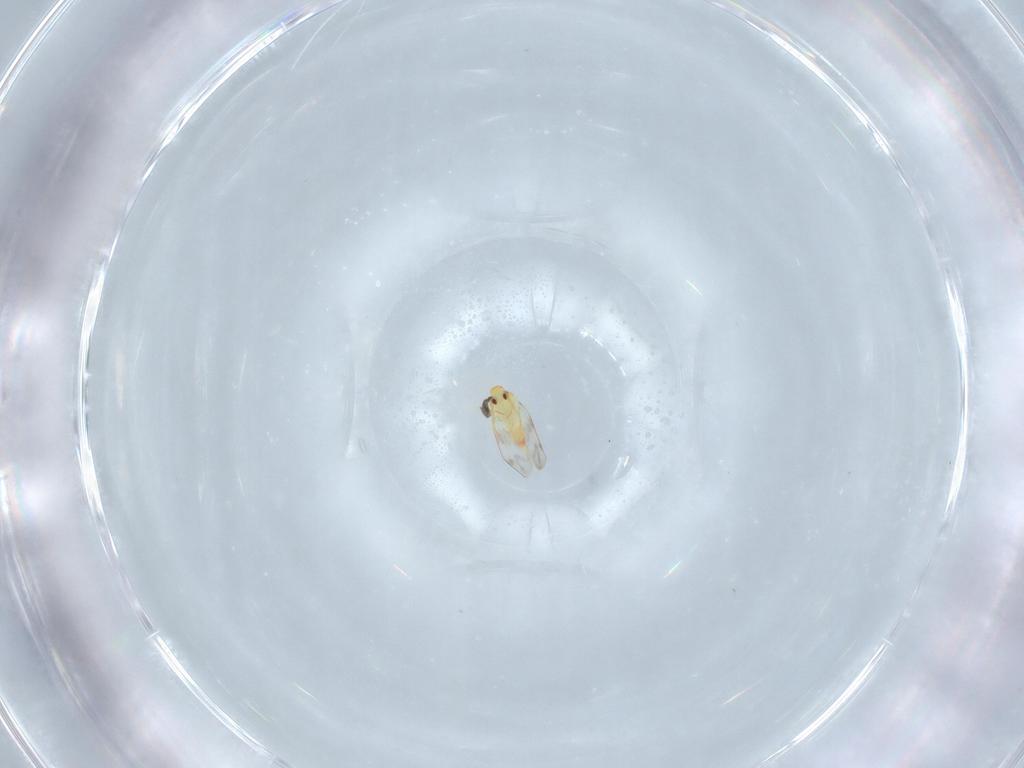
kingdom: Animalia
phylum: Arthropoda
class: Insecta
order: Hemiptera
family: Aleyrodidae
